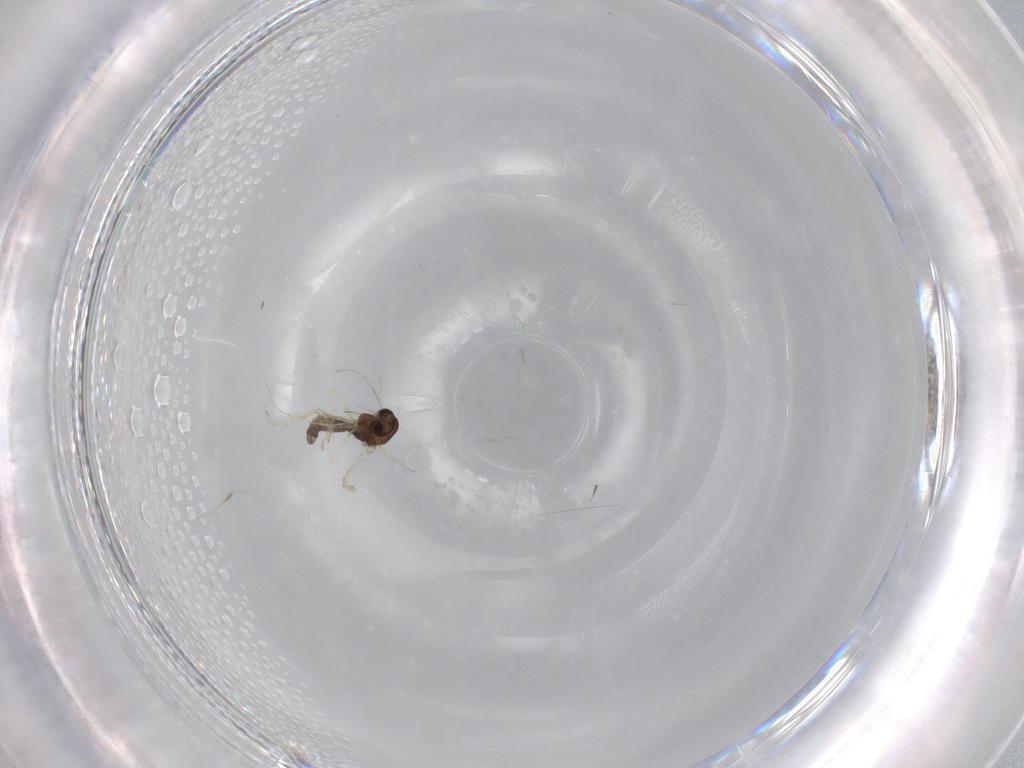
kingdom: Animalia
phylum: Arthropoda
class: Insecta
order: Diptera
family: Chironomidae
